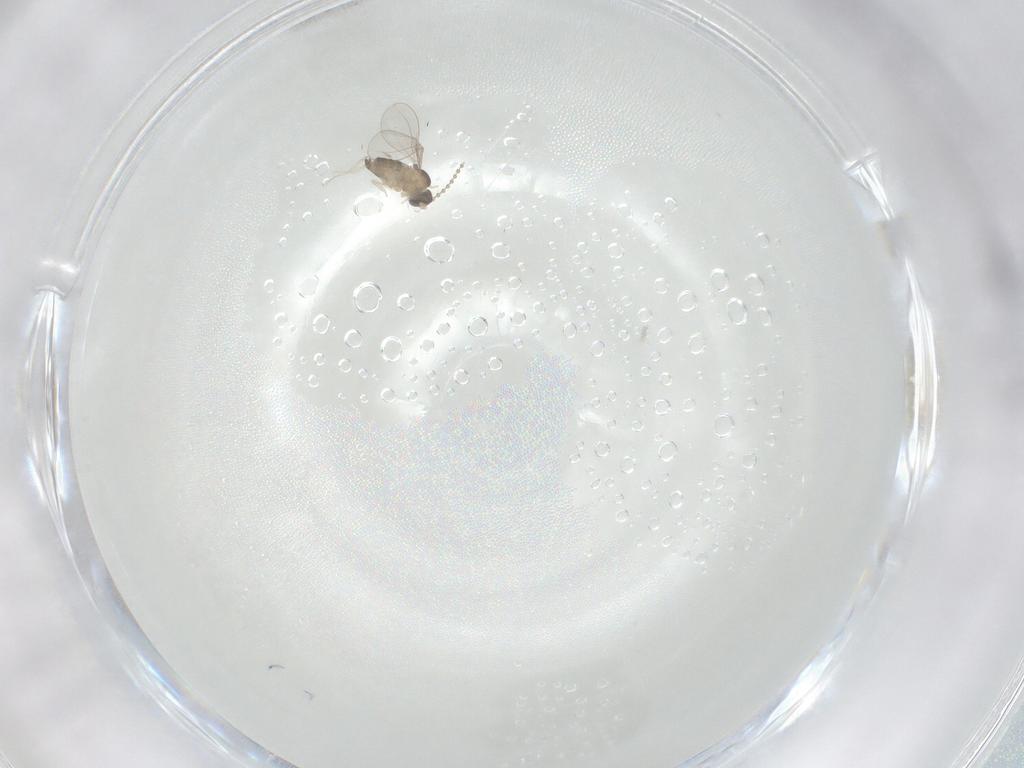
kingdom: Animalia
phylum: Arthropoda
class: Insecta
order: Diptera
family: Cecidomyiidae
